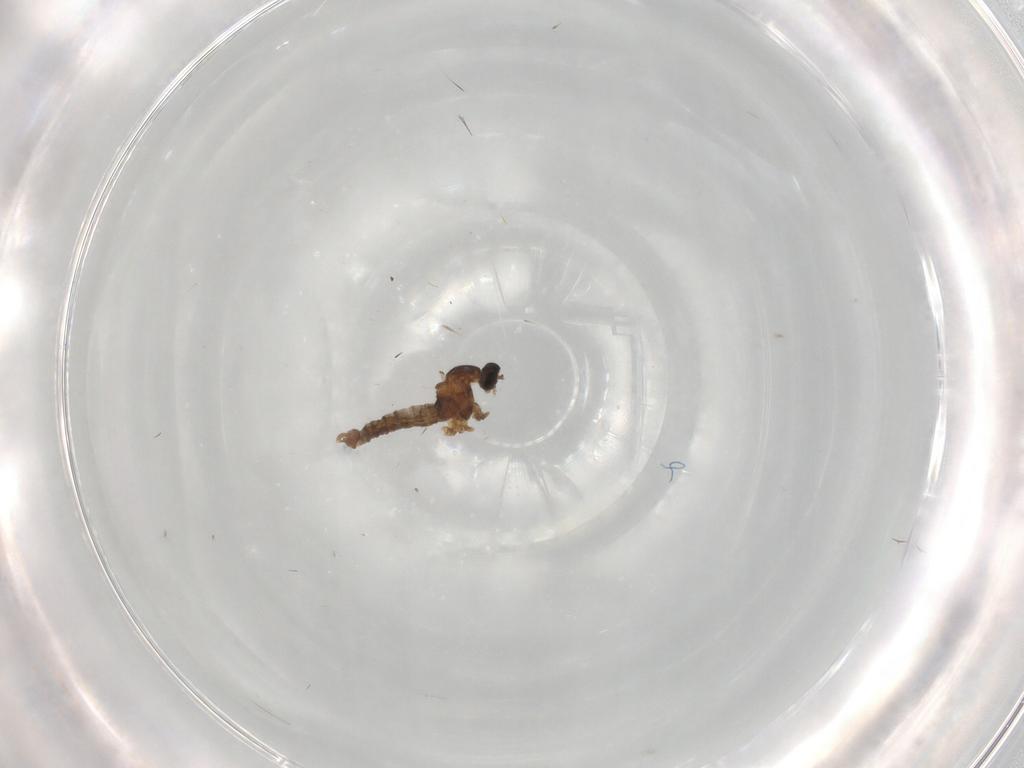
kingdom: Animalia
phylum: Arthropoda
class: Insecta
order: Diptera
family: Cecidomyiidae
